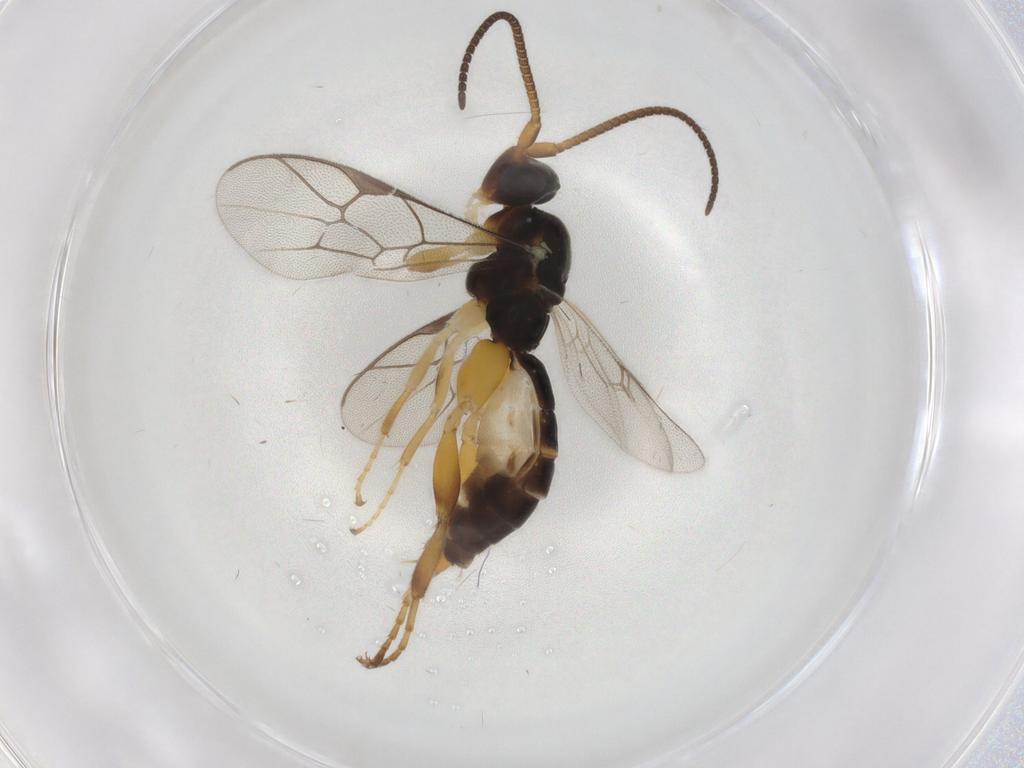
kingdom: Animalia
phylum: Arthropoda
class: Insecta
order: Hymenoptera
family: Ichneumonidae
